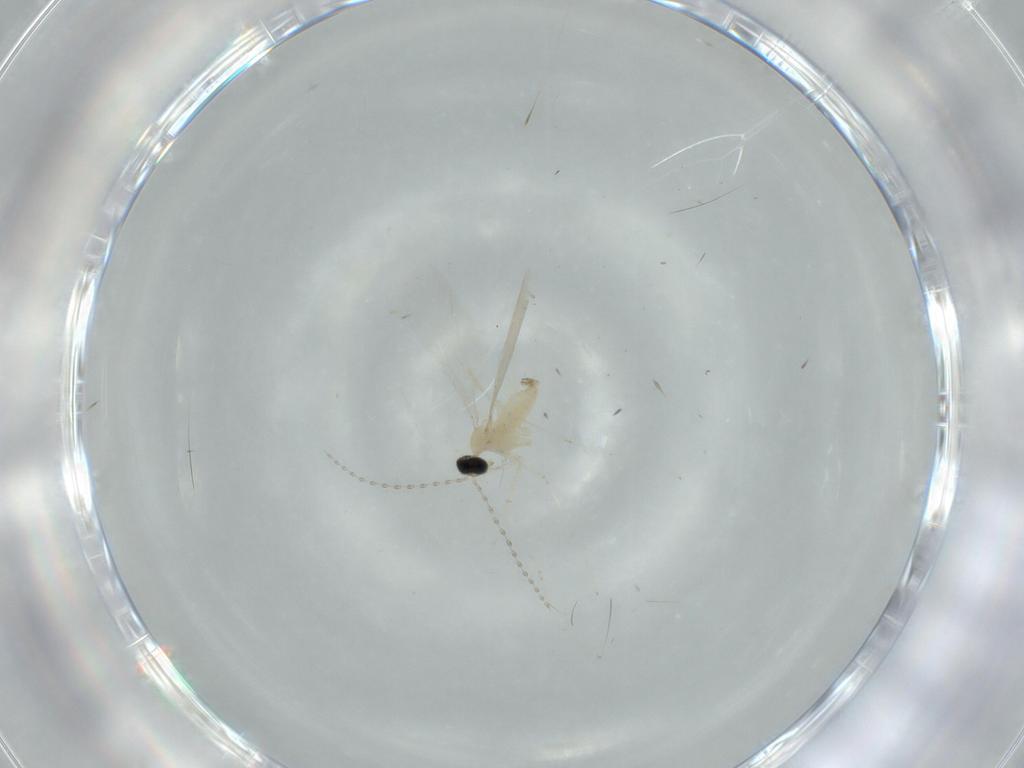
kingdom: Animalia
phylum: Arthropoda
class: Insecta
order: Diptera
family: Cecidomyiidae
